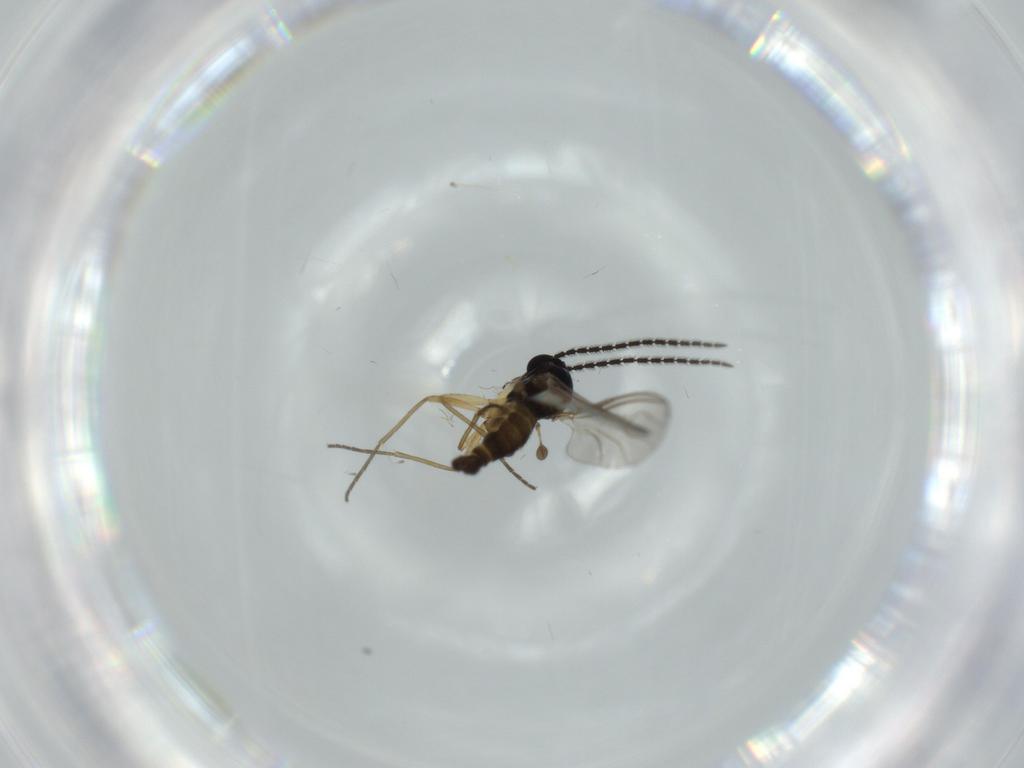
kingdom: Animalia
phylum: Arthropoda
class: Insecta
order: Diptera
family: Sciaridae
